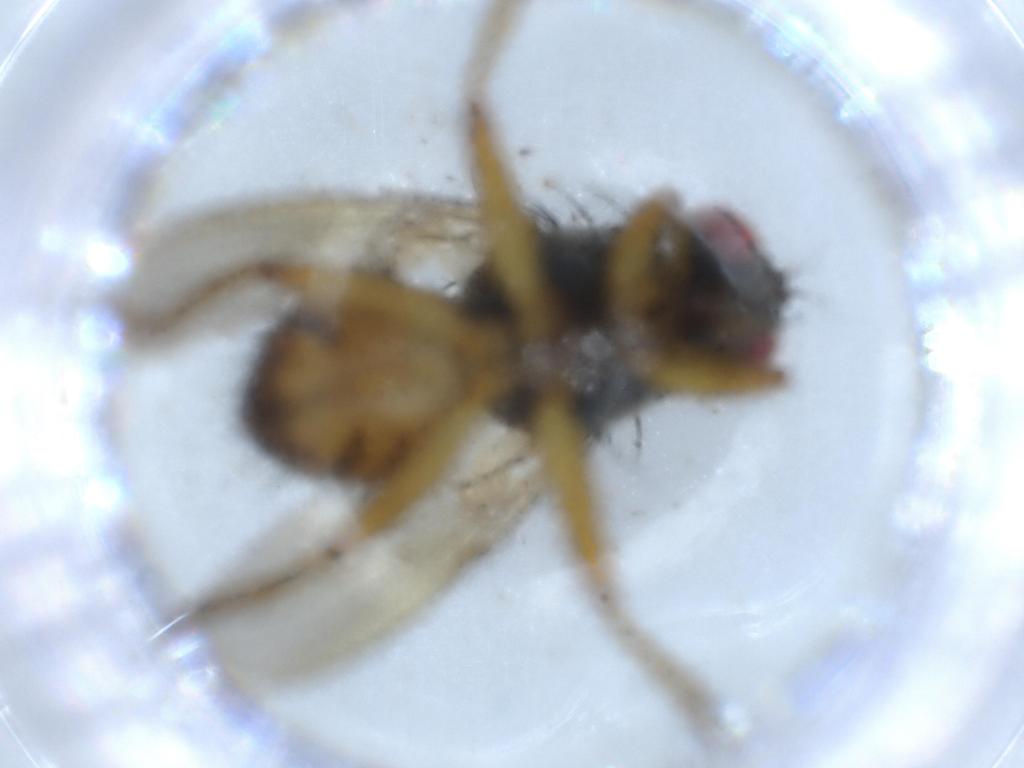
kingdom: Animalia
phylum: Arthropoda
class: Insecta
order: Diptera
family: Muscidae
